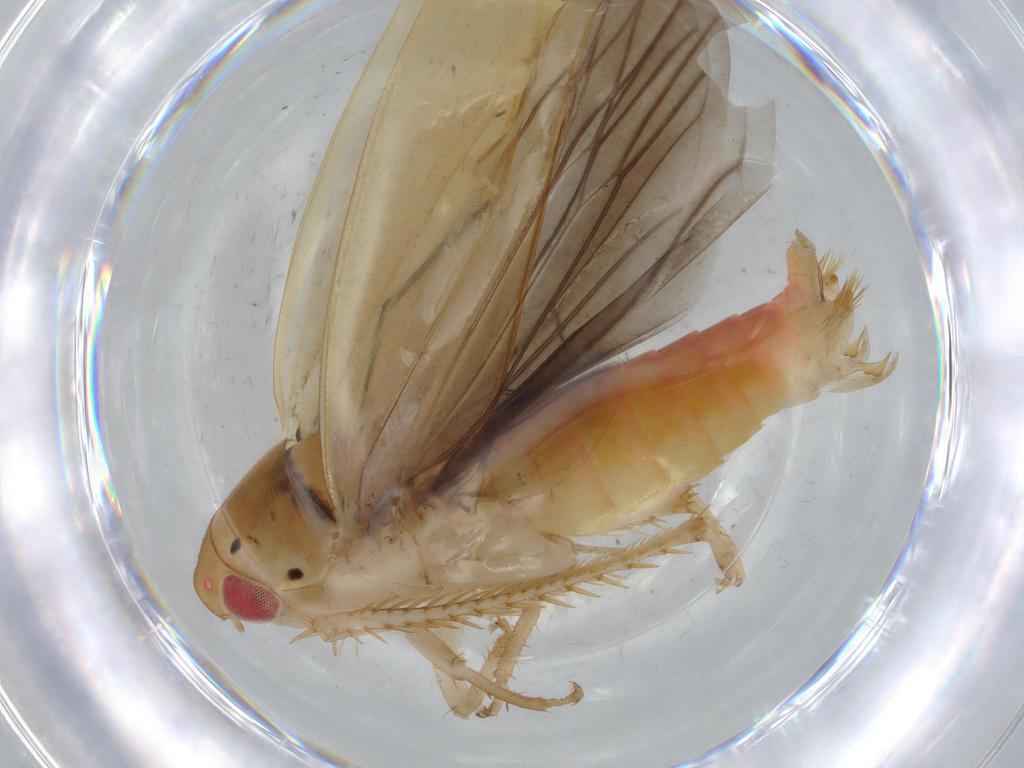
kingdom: Animalia
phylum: Arthropoda
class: Insecta
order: Hemiptera
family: Cicadellidae
